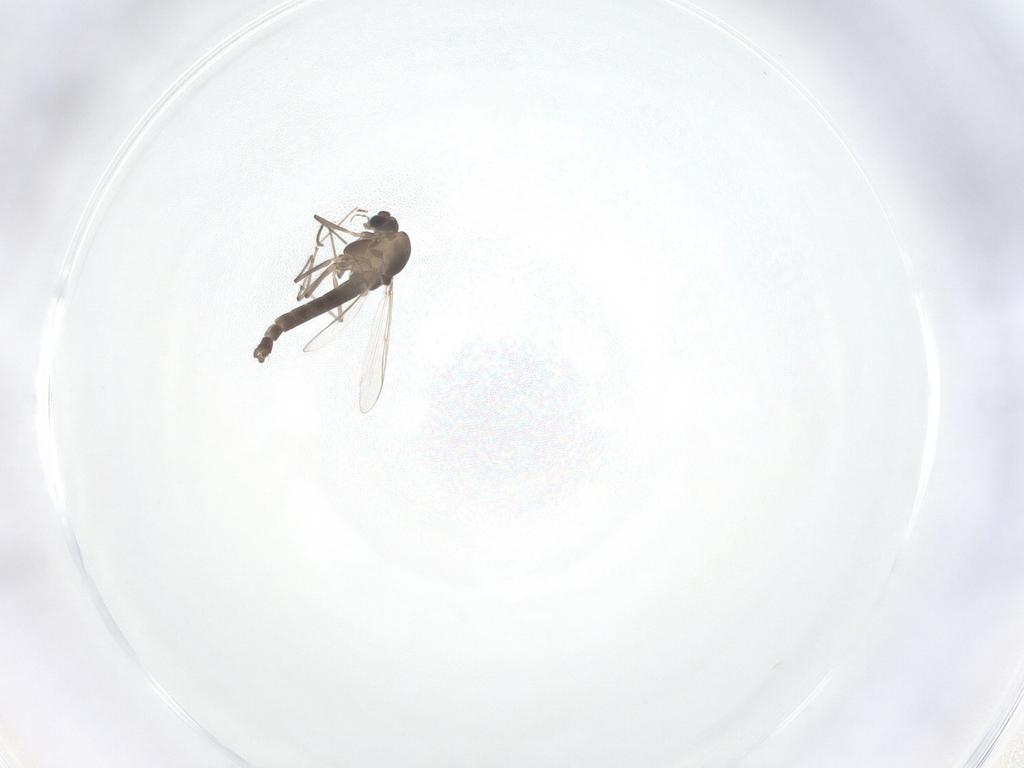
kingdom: Animalia
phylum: Arthropoda
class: Insecta
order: Diptera
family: Chironomidae
